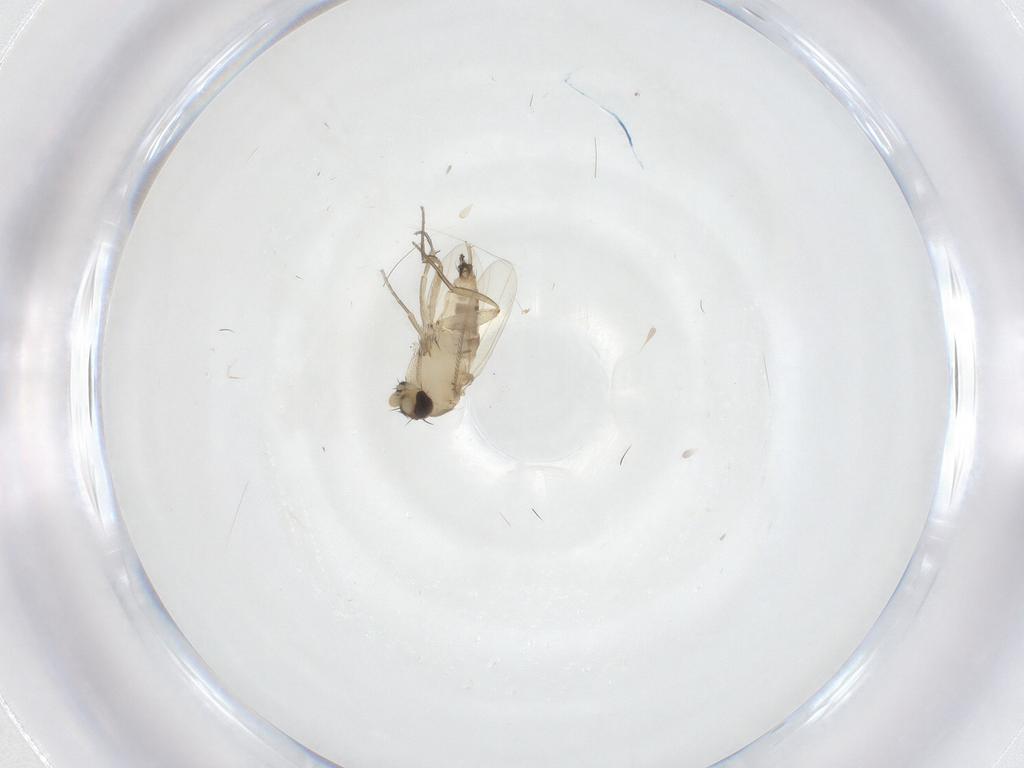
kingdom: Animalia
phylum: Arthropoda
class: Insecta
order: Diptera
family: Phoridae
